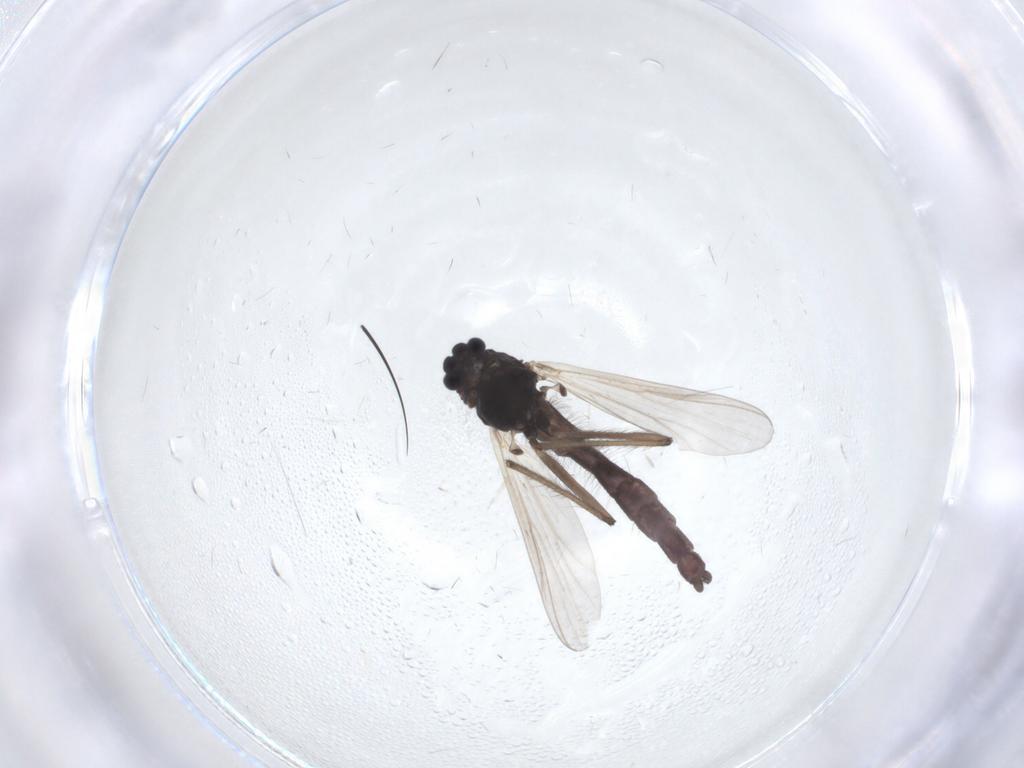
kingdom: Animalia
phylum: Arthropoda
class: Insecta
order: Diptera
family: Chironomidae
